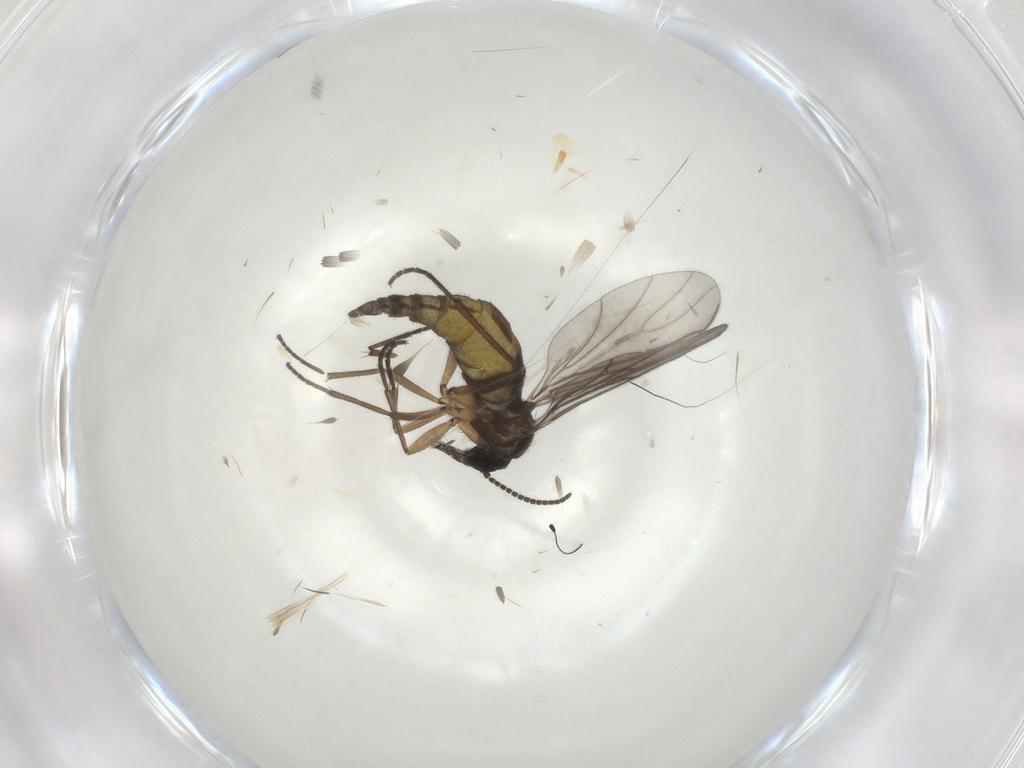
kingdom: Animalia
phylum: Arthropoda
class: Insecta
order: Diptera
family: Sciaridae
